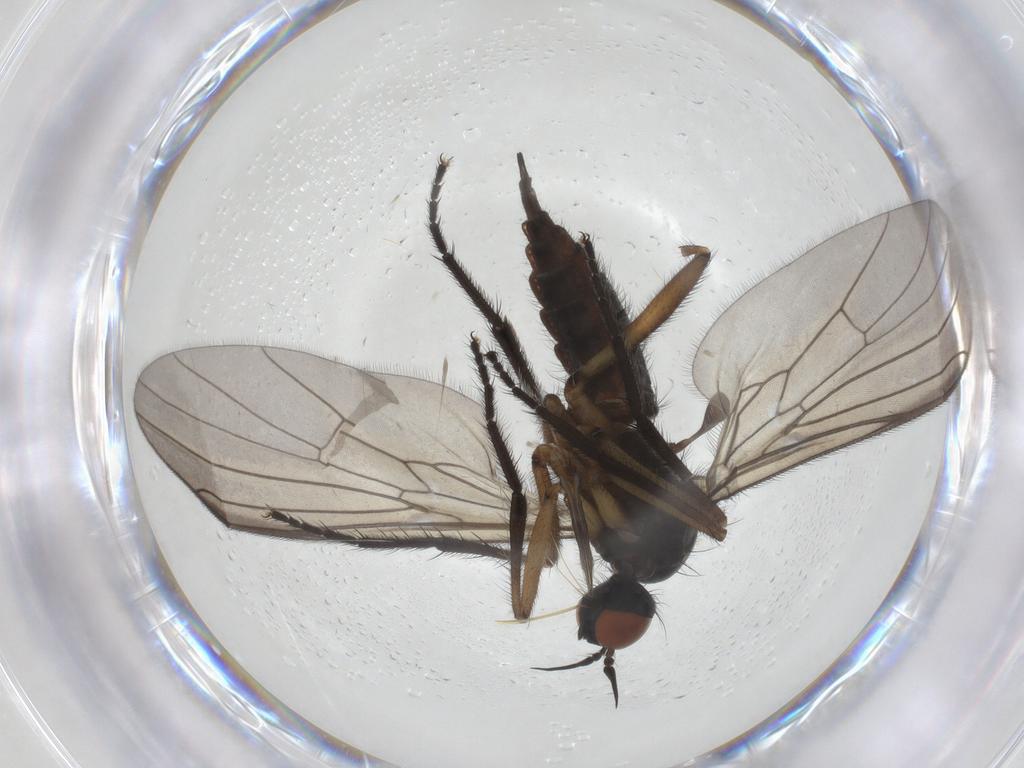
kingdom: Animalia
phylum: Arthropoda
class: Insecta
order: Diptera
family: Empididae
